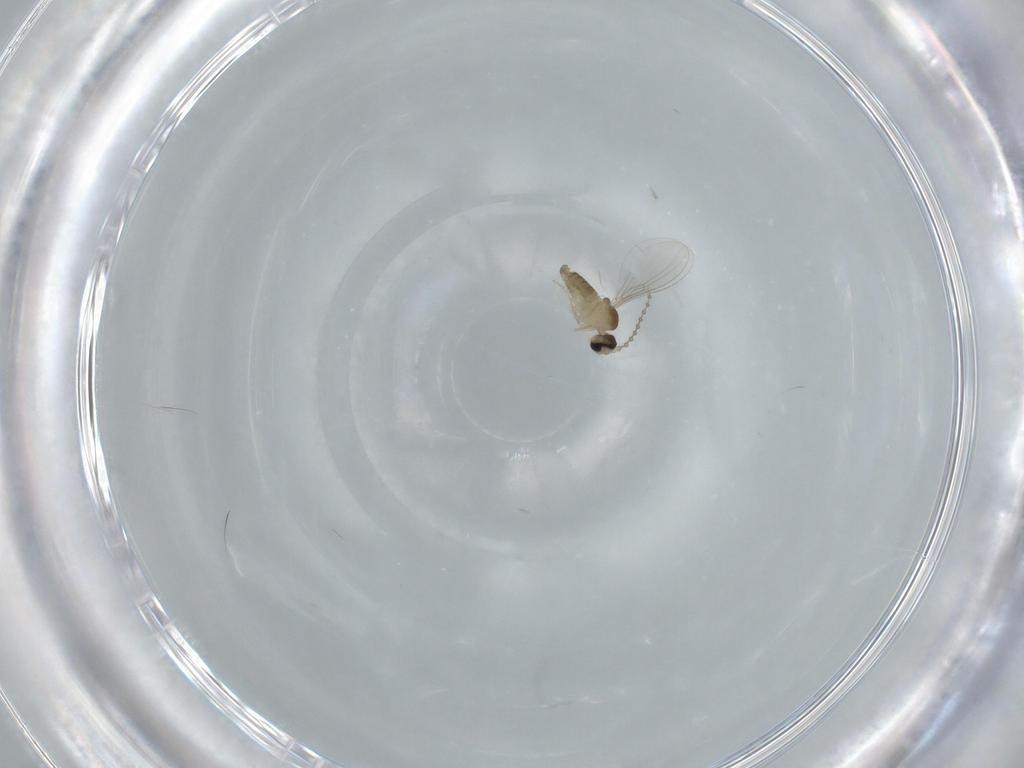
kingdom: Animalia
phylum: Arthropoda
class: Insecta
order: Diptera
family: Cecidomyiidae
